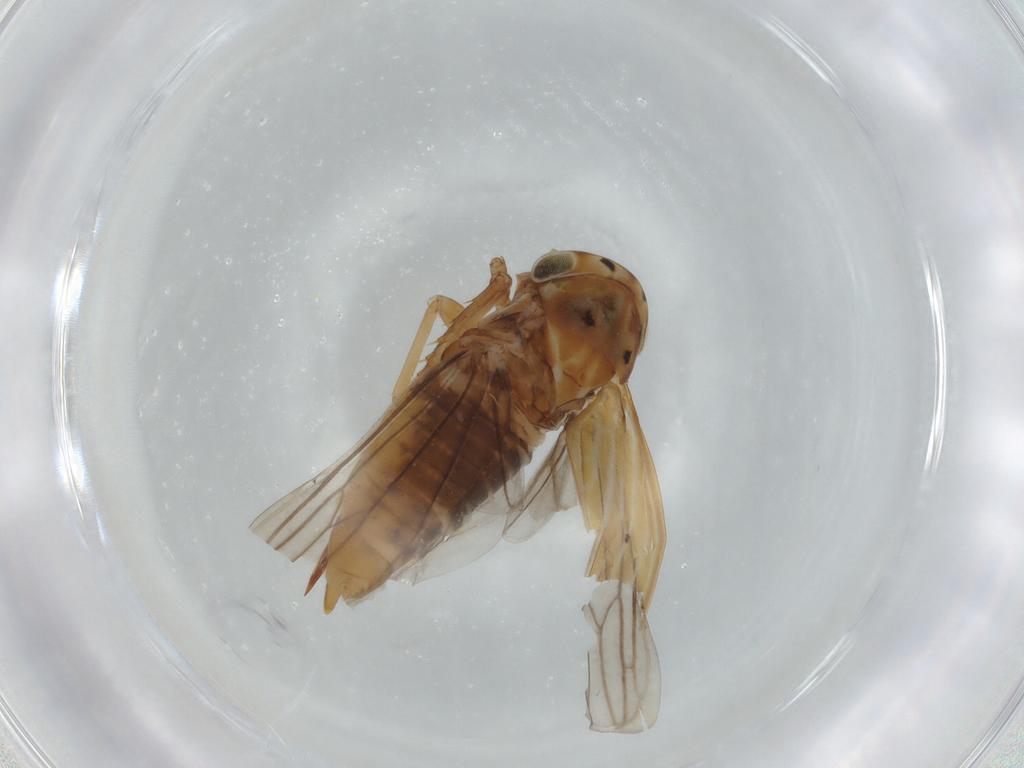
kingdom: Animalia
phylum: Arthropoda
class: Insecta
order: Hemiptera
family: Cicadellidae
